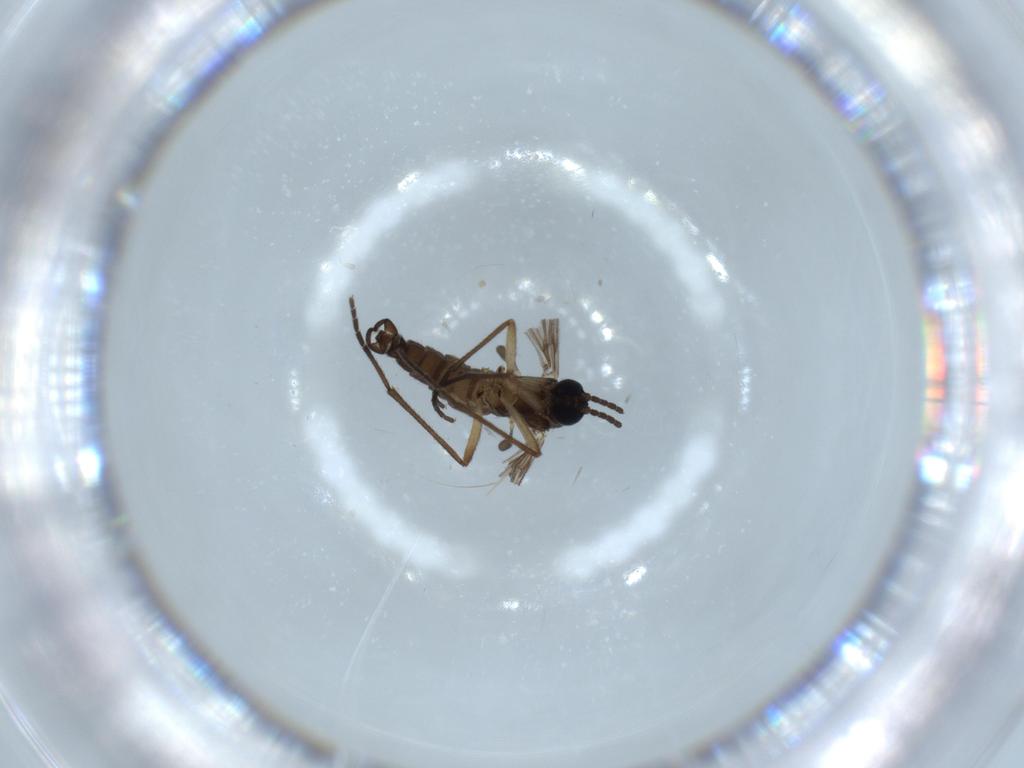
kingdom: Animalia
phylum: Arthropoda
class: Insecta
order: Diptera
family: Sciaridae
